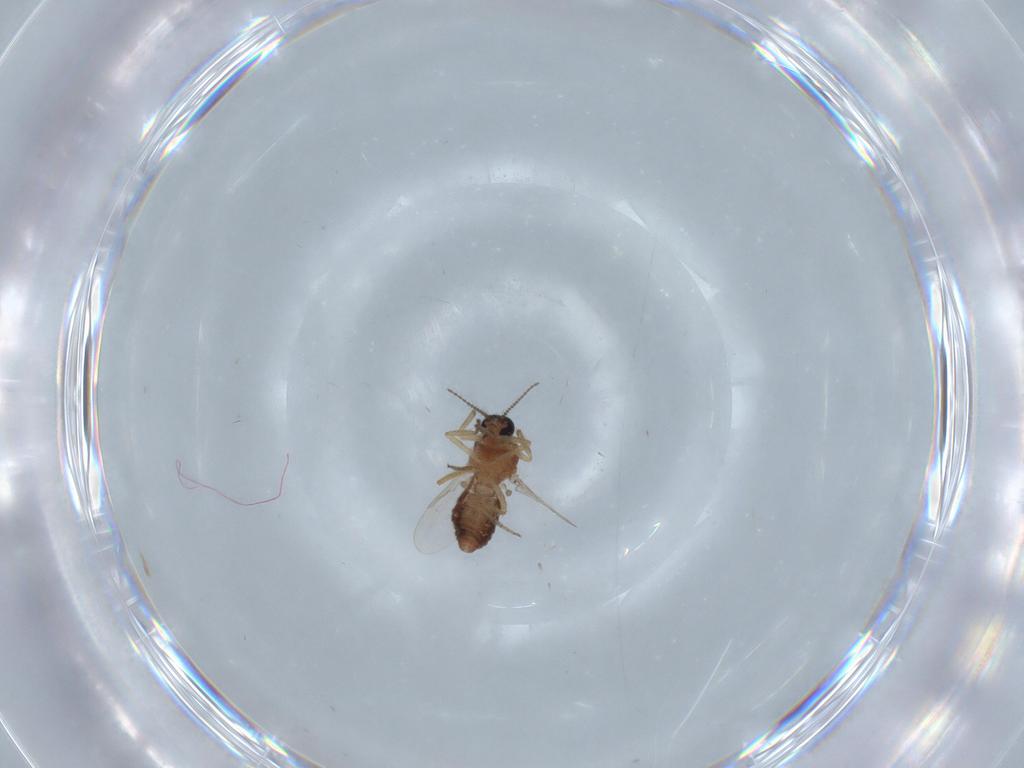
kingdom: Animalia
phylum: Arthropoda
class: Insecta
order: Diptera
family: Ceratopogonidae
